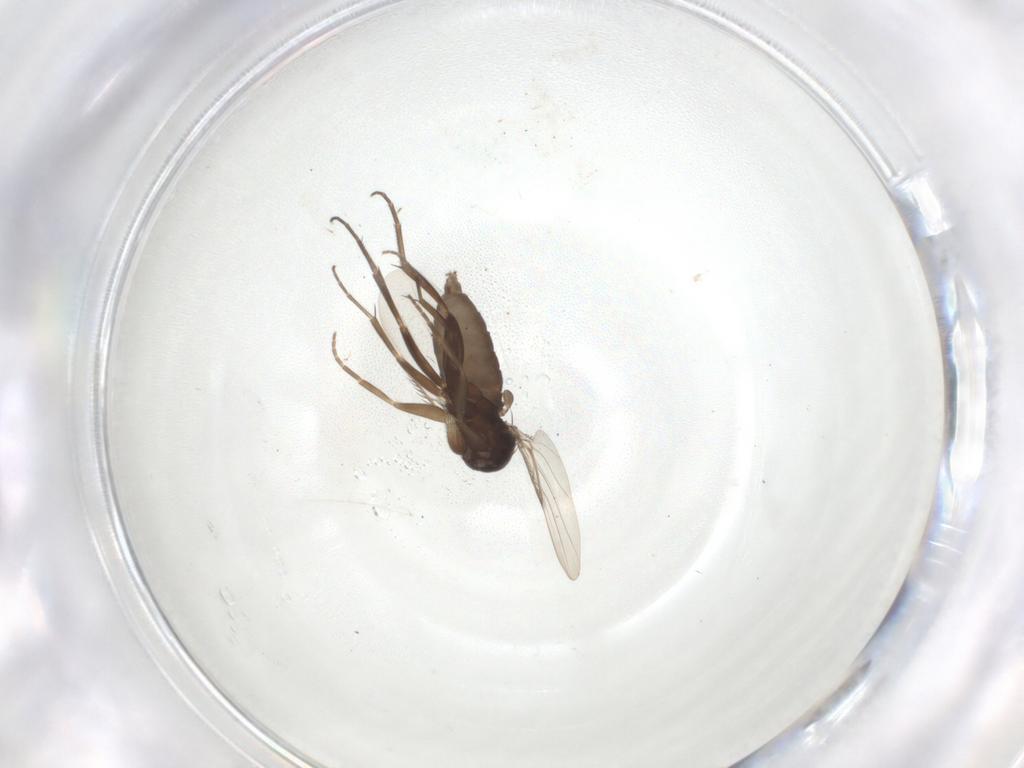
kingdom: Animalia
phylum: Arthropoda
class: Insecta
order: Diptera
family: Phoridae
